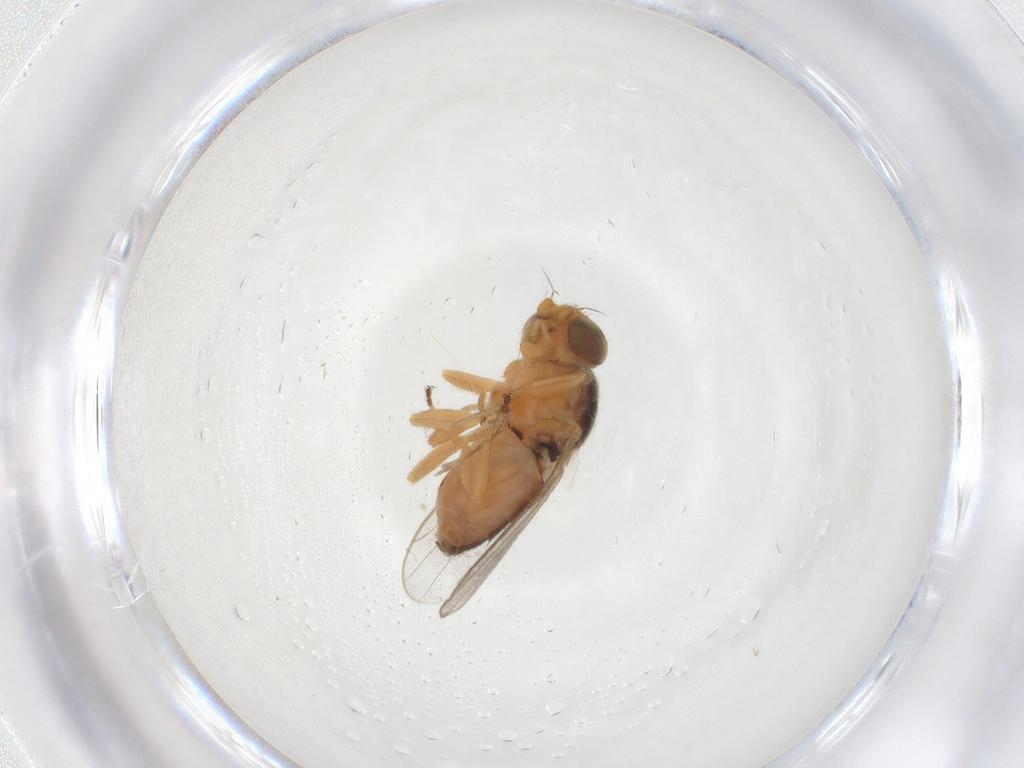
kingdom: Animalia
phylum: Arthropoda
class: Insecta
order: Diptera
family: Chloropidae
